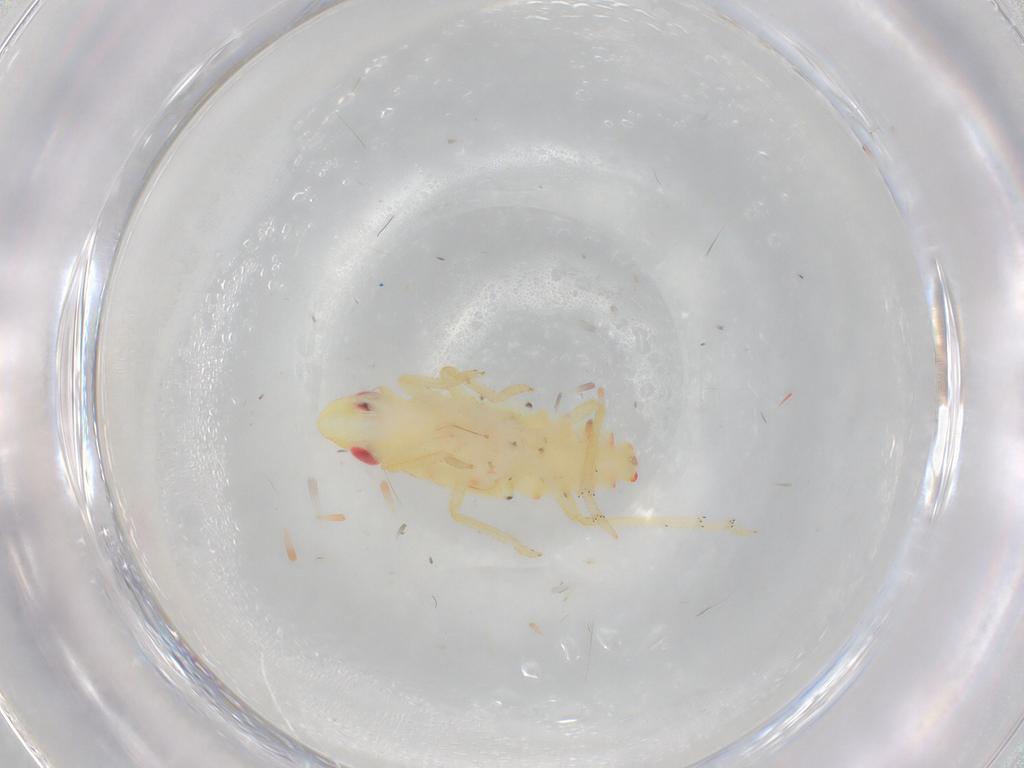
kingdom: Animalia
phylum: Arthropoda
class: Insecta
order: Hemiptera
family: Tropiduchidae
